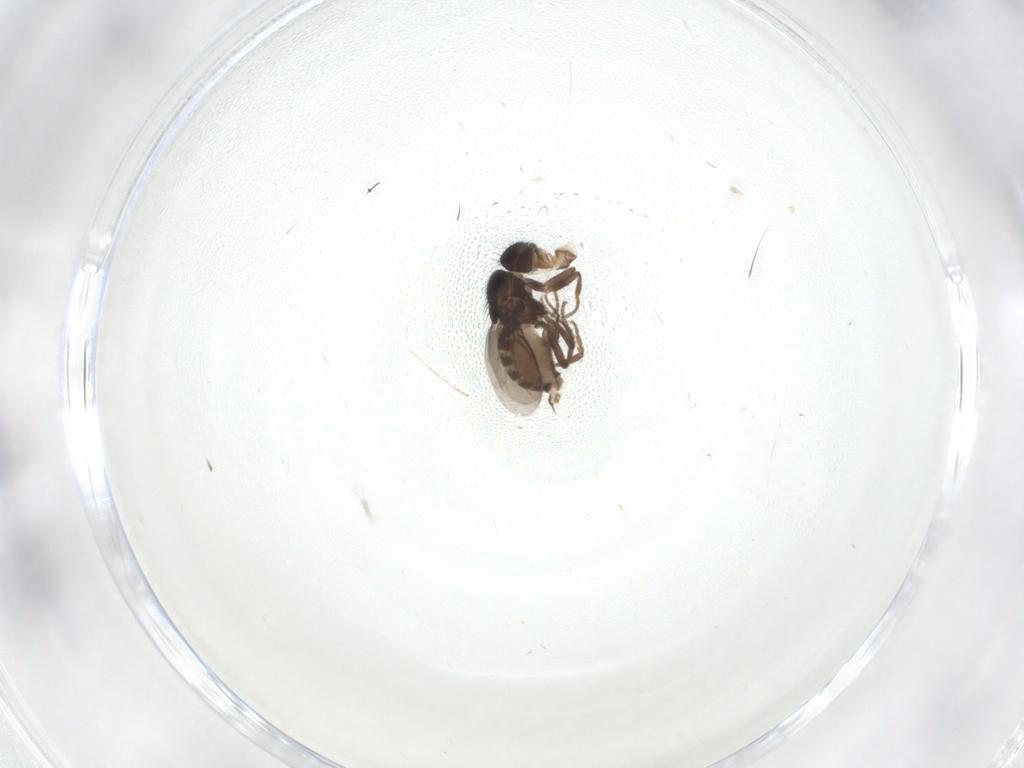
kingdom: Animalia
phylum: Arthropoda
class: Insecta
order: Diptera
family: Sphaeroceridae
